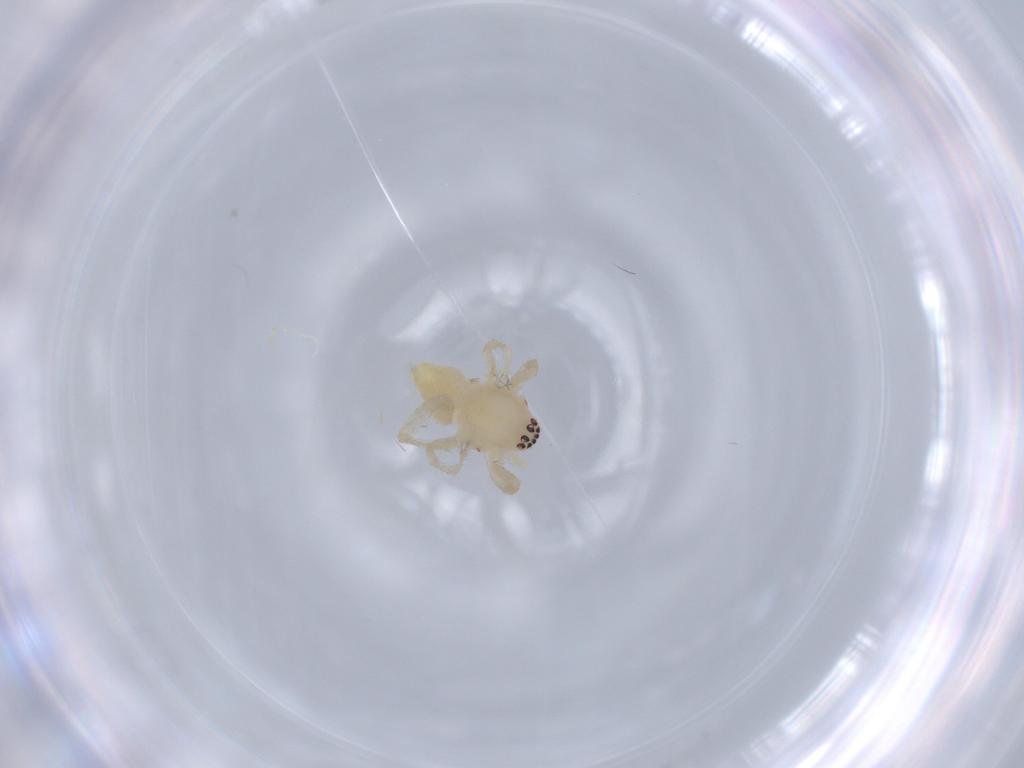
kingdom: Animalia
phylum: Arthropoda
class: Arachnida
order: Araneae
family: Anyphaenidae
